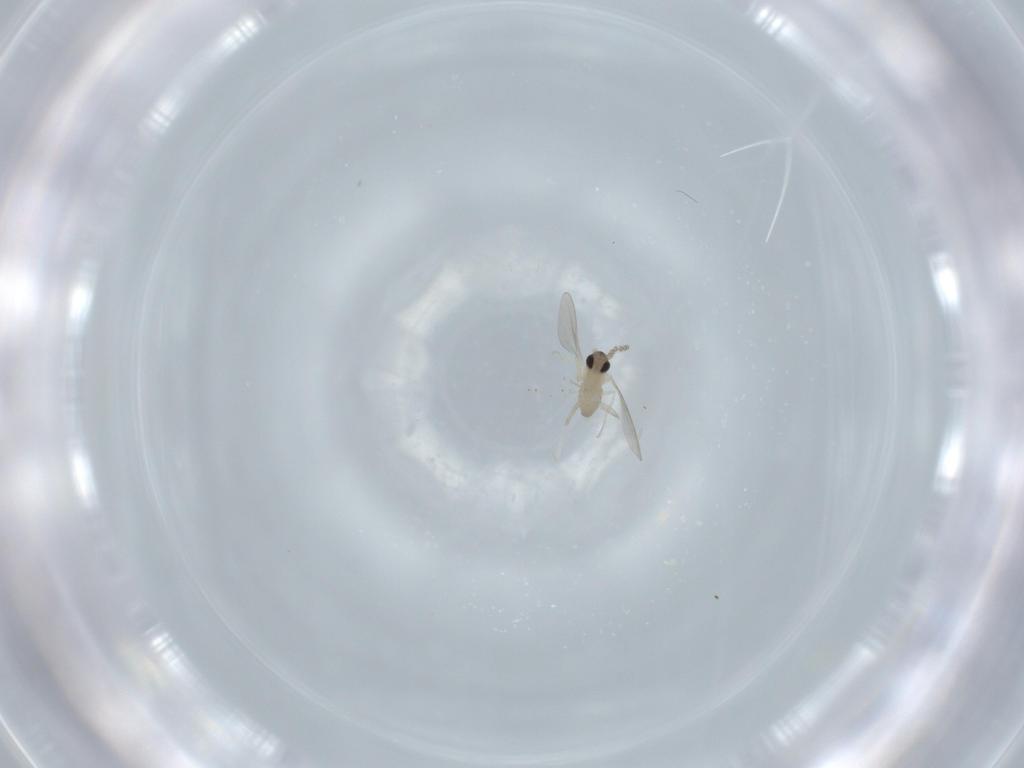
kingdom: Animalia
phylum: Arthropoda
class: Insecta
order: Diptera
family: Cecidomyiidae
